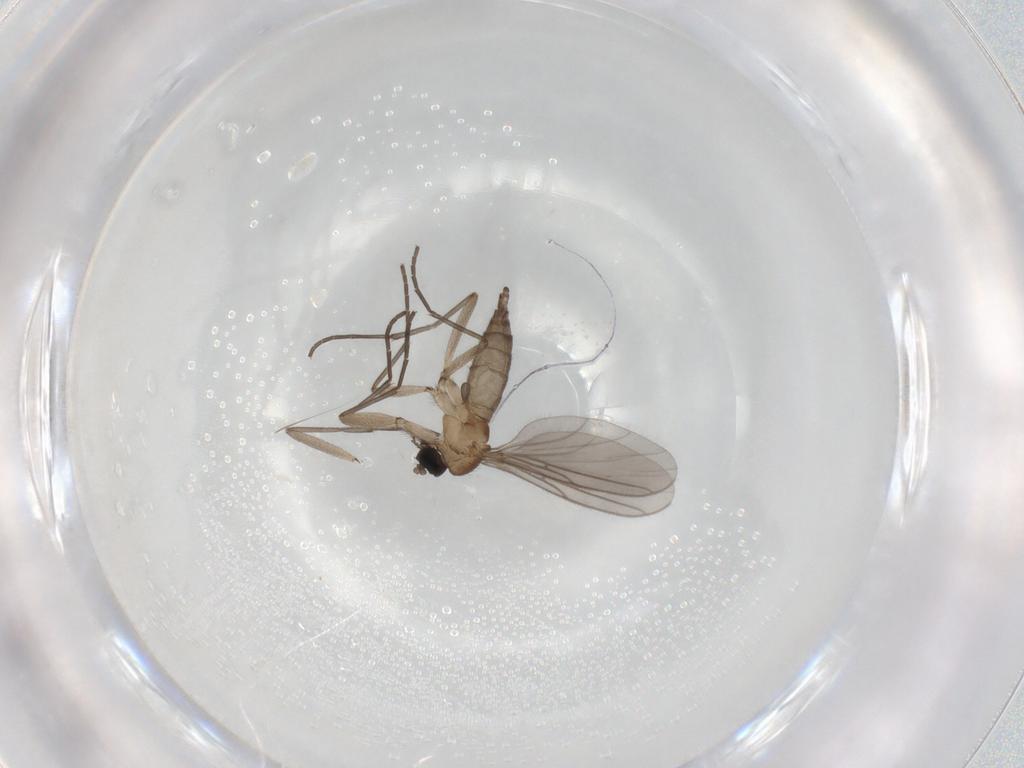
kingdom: Animalia
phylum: Arthropoda
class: Insecta
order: Diptera
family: Sciaridae
